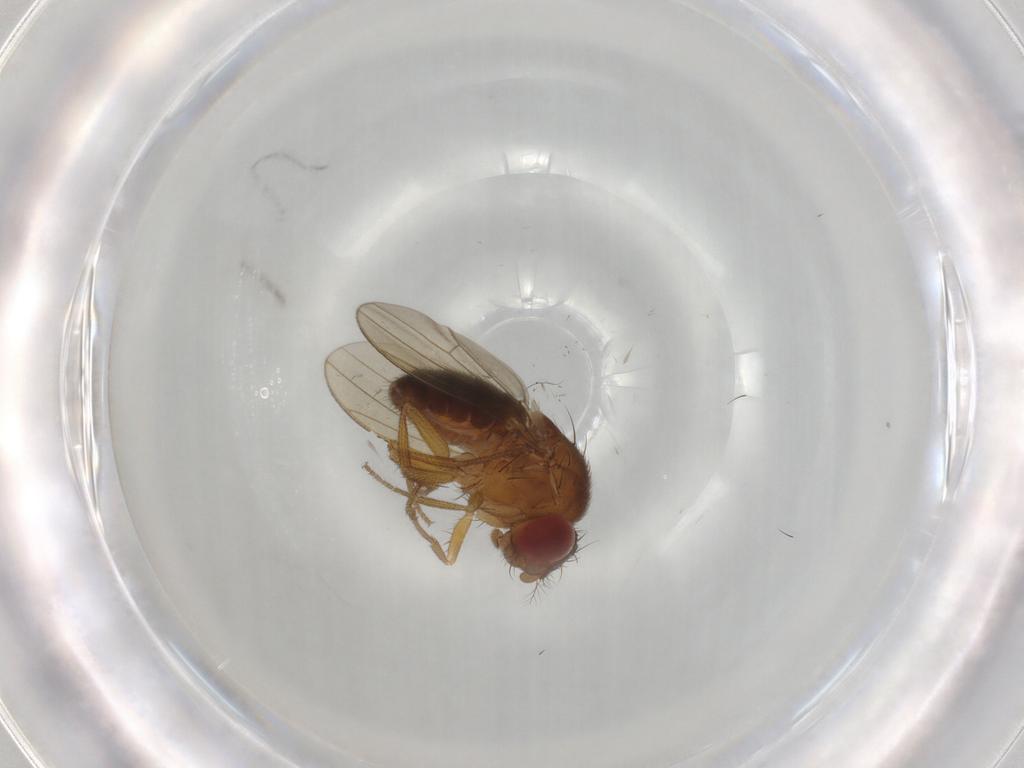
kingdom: Animalia
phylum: Arthropoda
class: Insecta
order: Diptera
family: Drosophilidae
